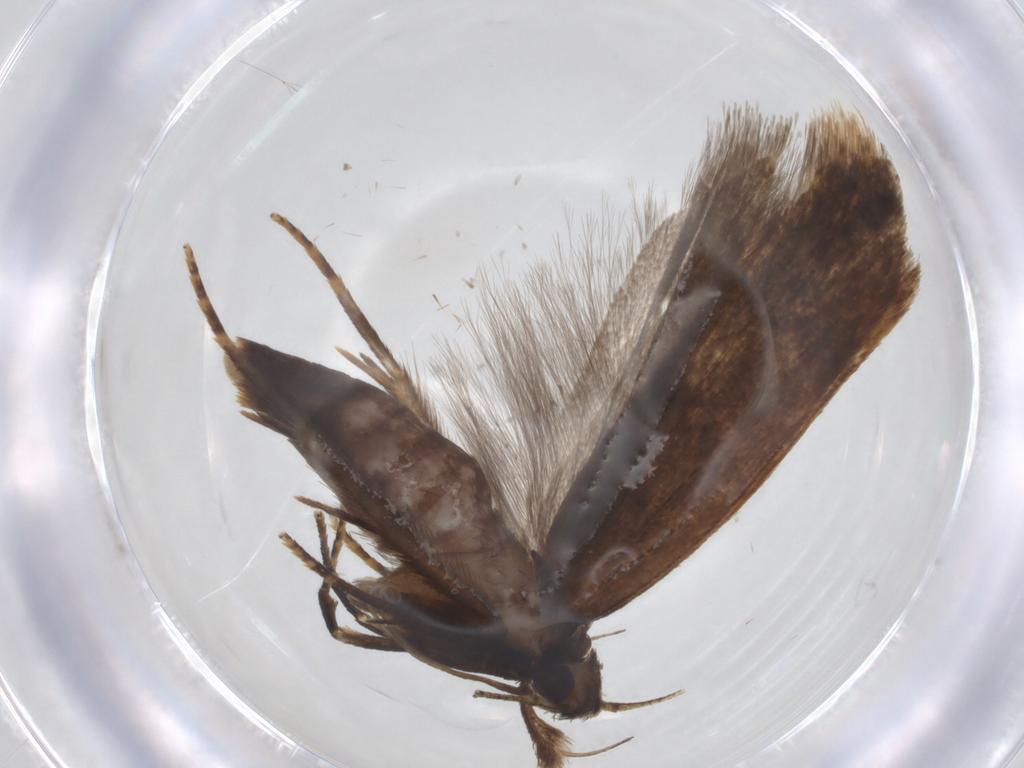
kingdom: Animalia
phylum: Arthropoda
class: Insecta
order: Lepidoptera
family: Gelechiidae
